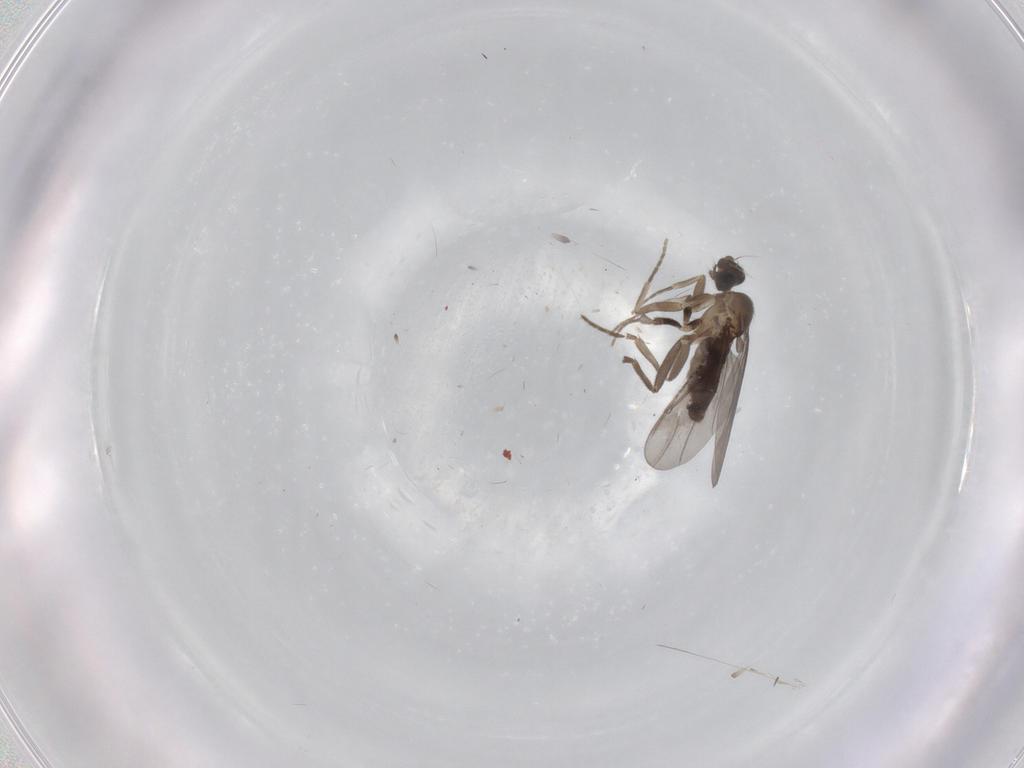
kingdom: Animalia
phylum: Arthropoda
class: Insecta
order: Diptera
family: Phoridae
